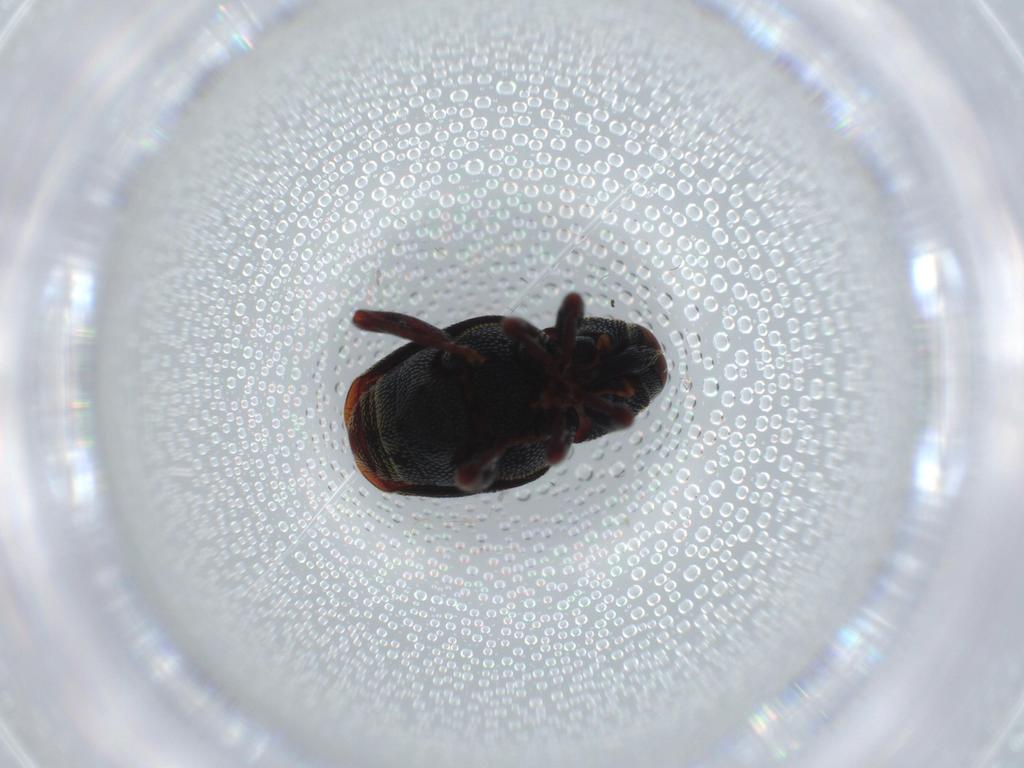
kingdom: Animalia
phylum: Arthropoda
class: Insecta
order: Coleoptera
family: Curculionidae
